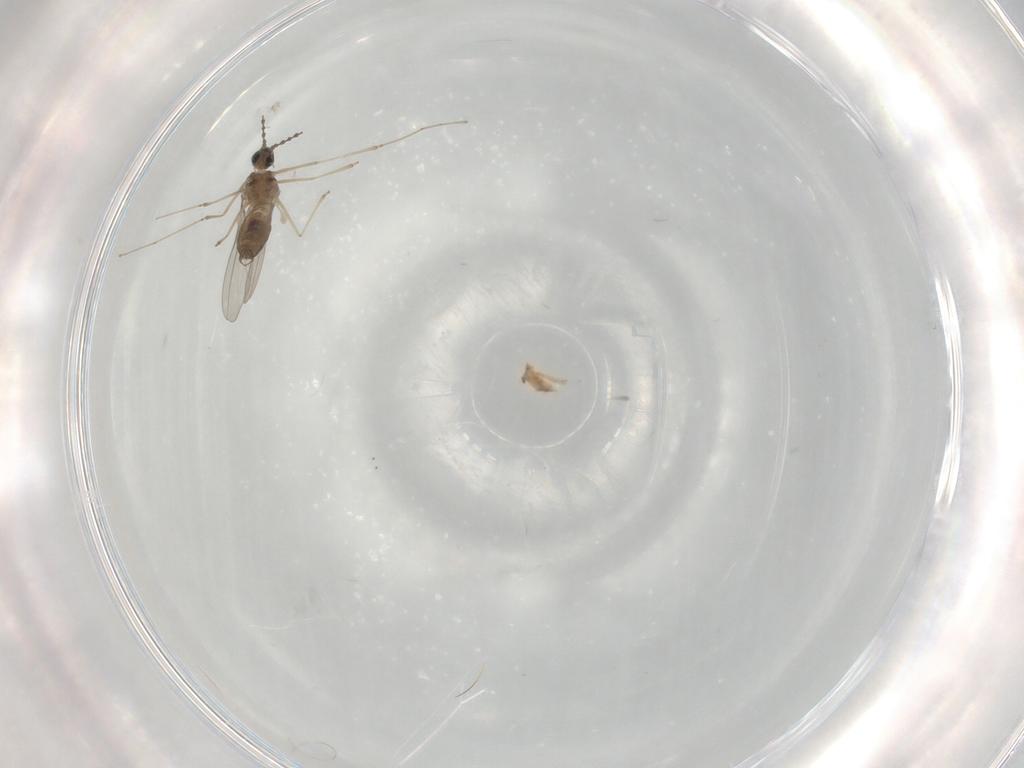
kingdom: Animalia
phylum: Arthropoda
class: Insecta
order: Diptera
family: Cecidomyiidae
